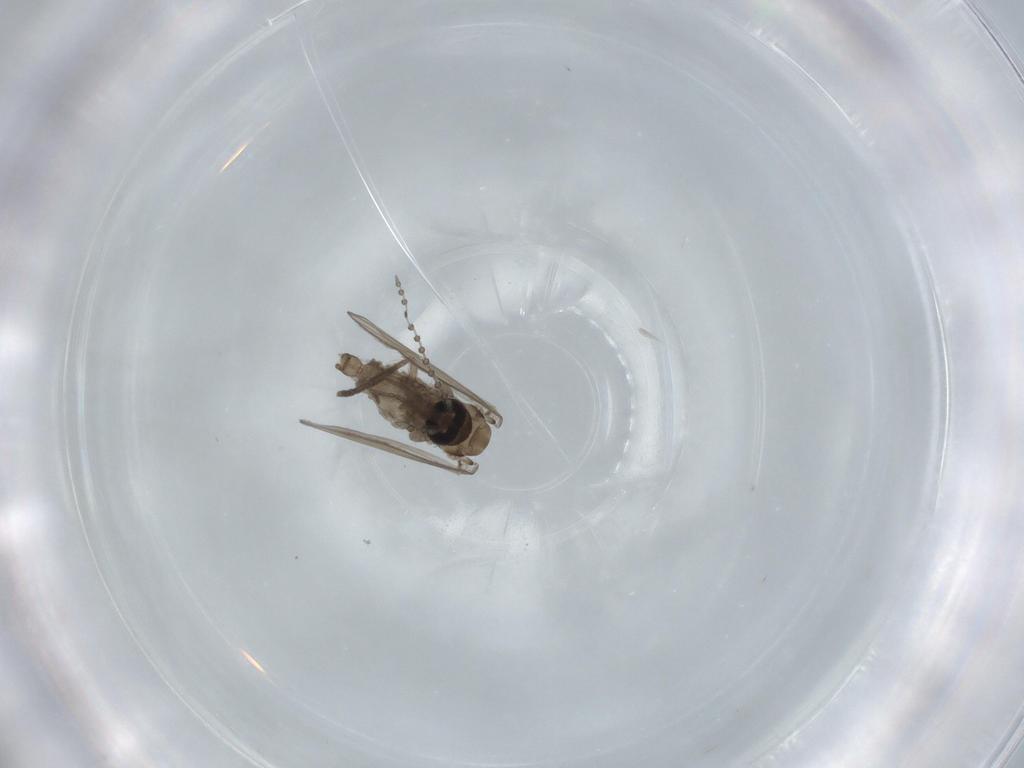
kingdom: Animalia
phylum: Arthropoda
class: Insecta
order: Diptera
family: Psychodidae
